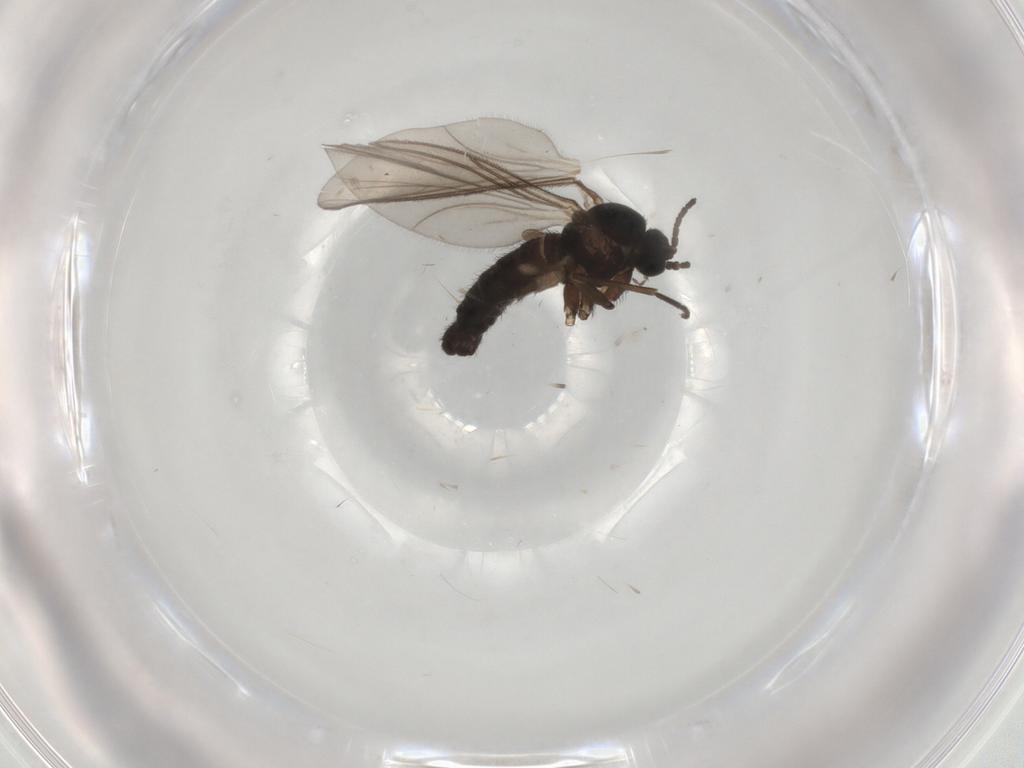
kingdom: Animalia
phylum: Arthropoda
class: Insecta
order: Diptera
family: Sciaridae
